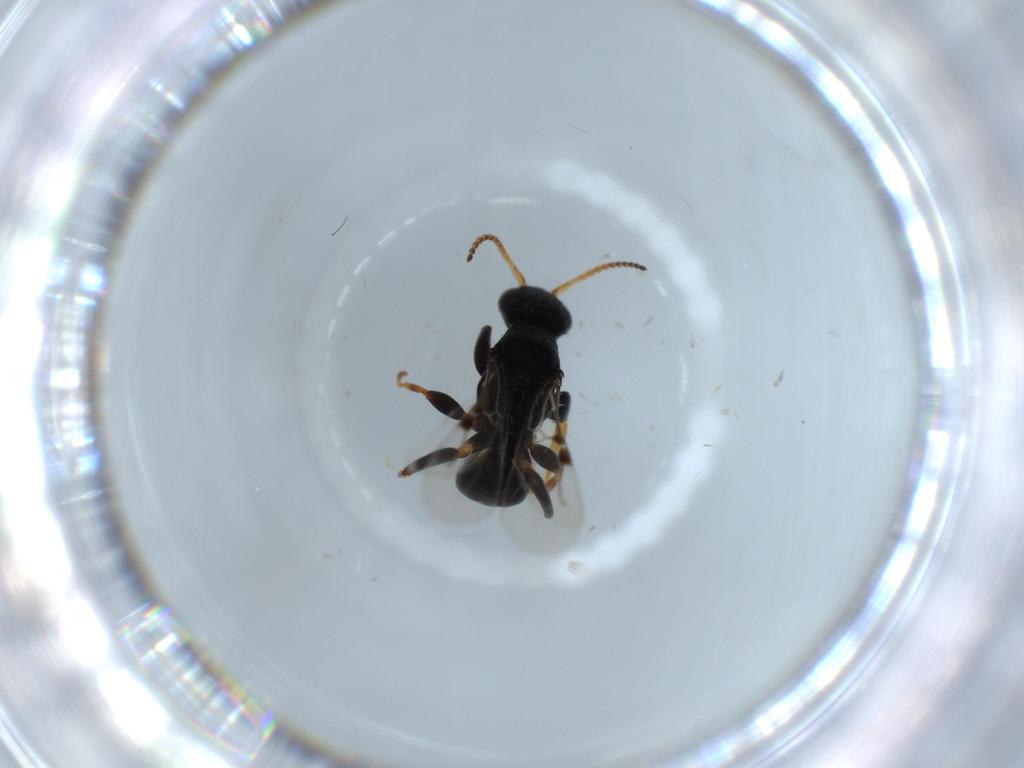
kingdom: Animalia
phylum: Arthropoda
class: Insecta
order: Hymenoptera
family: Bethylidae
